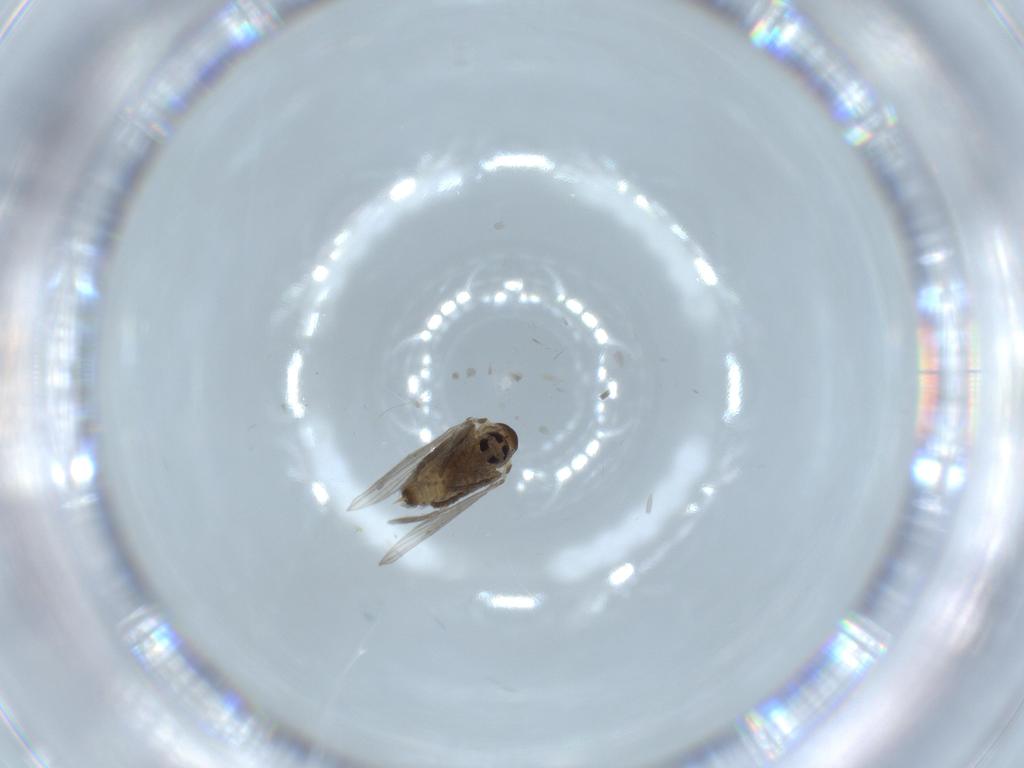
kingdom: Animalia
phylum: Arthropoda
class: Insecta
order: Diptera
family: Psychodidae
